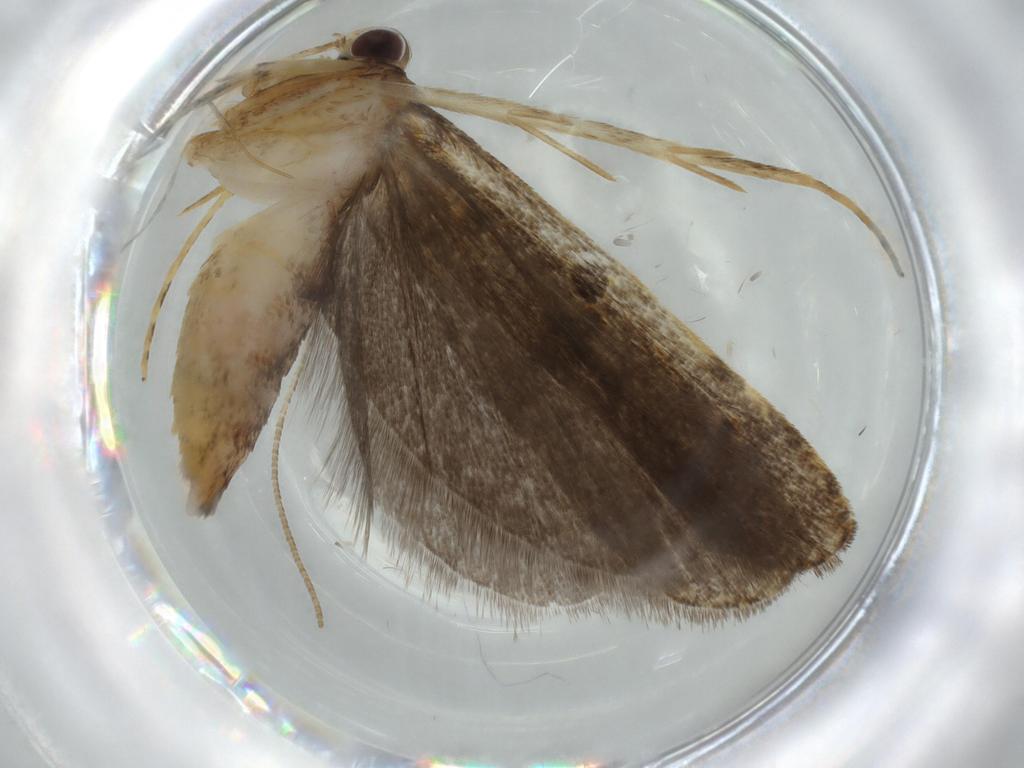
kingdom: Animalia
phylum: Arthropoda
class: Insecta
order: Lepidoptera
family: Autostichidae
